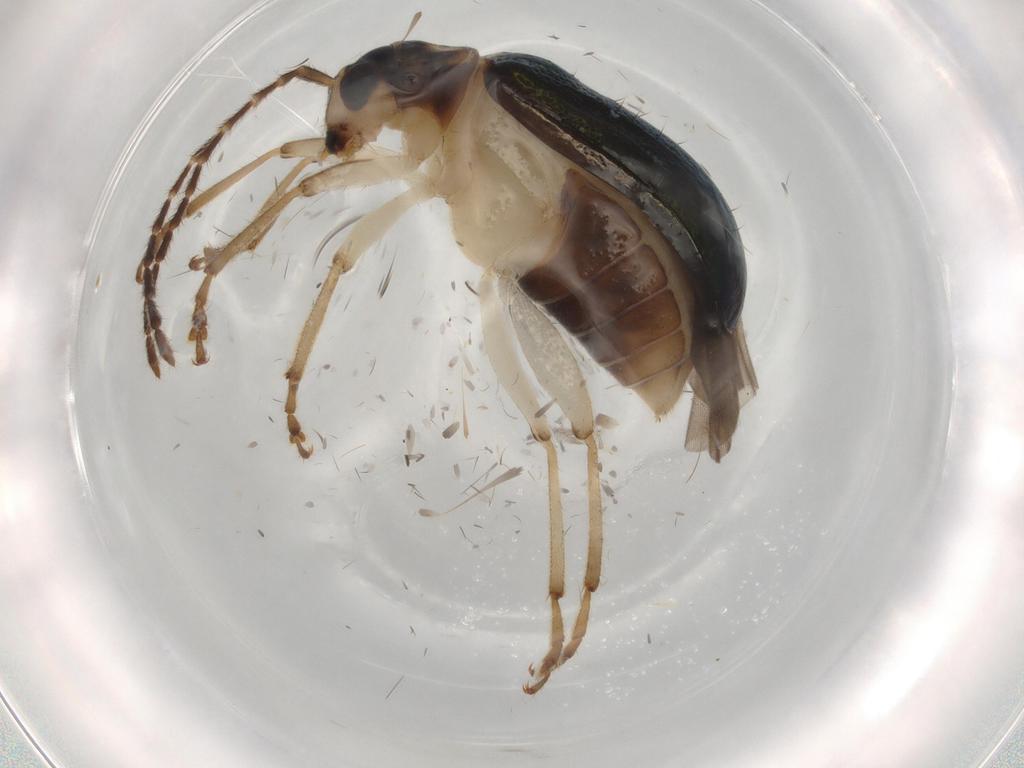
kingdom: Animalia
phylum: Arthropoda
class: Insecta
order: Coleoptera
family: Chrysomelidae
